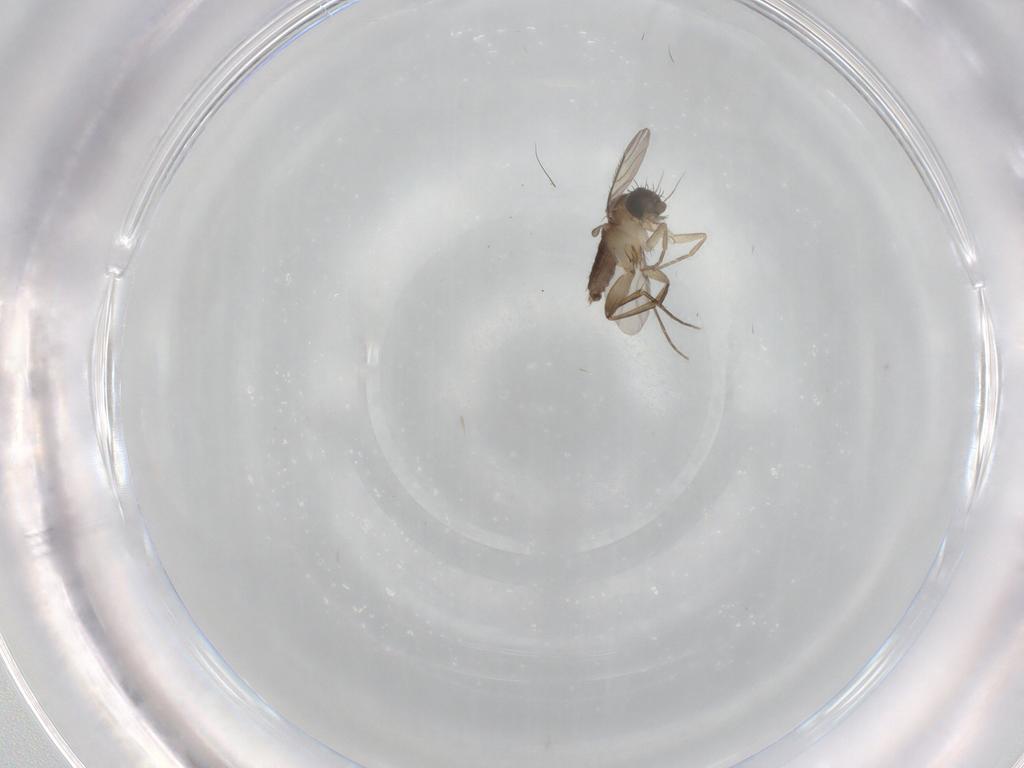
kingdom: Animalia
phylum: Arthropoda
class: Insecta
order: Diptera
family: Phoridae
